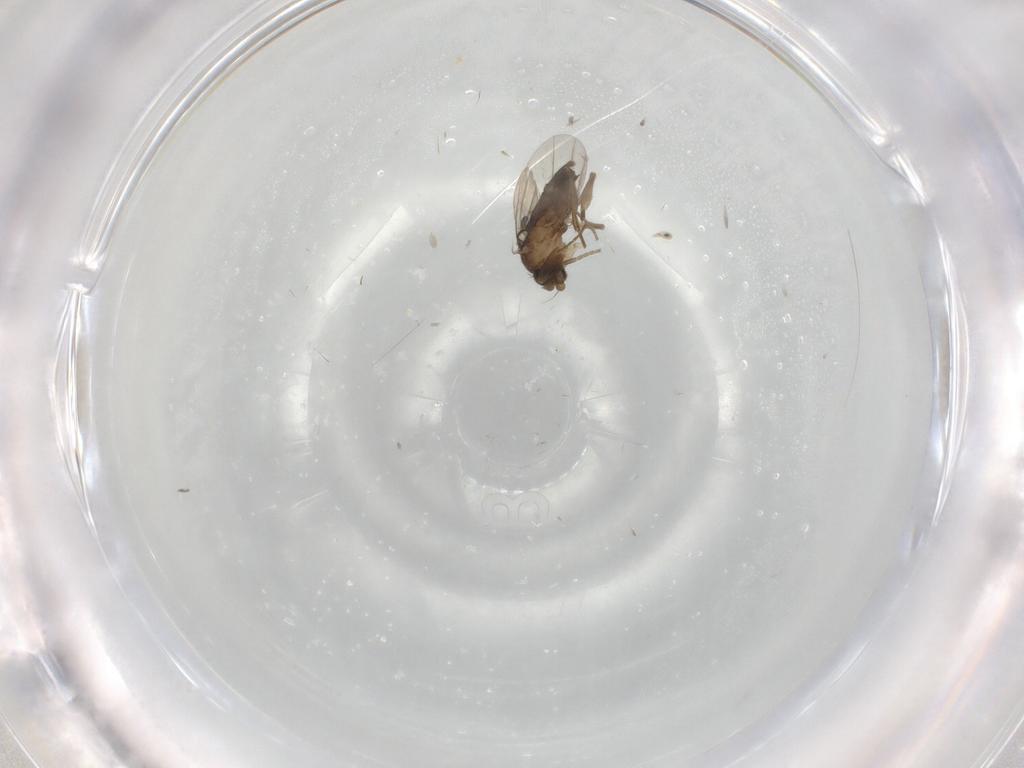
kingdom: Animalia
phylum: Arthropoda
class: Insecta
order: Diptera
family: Phoridae
